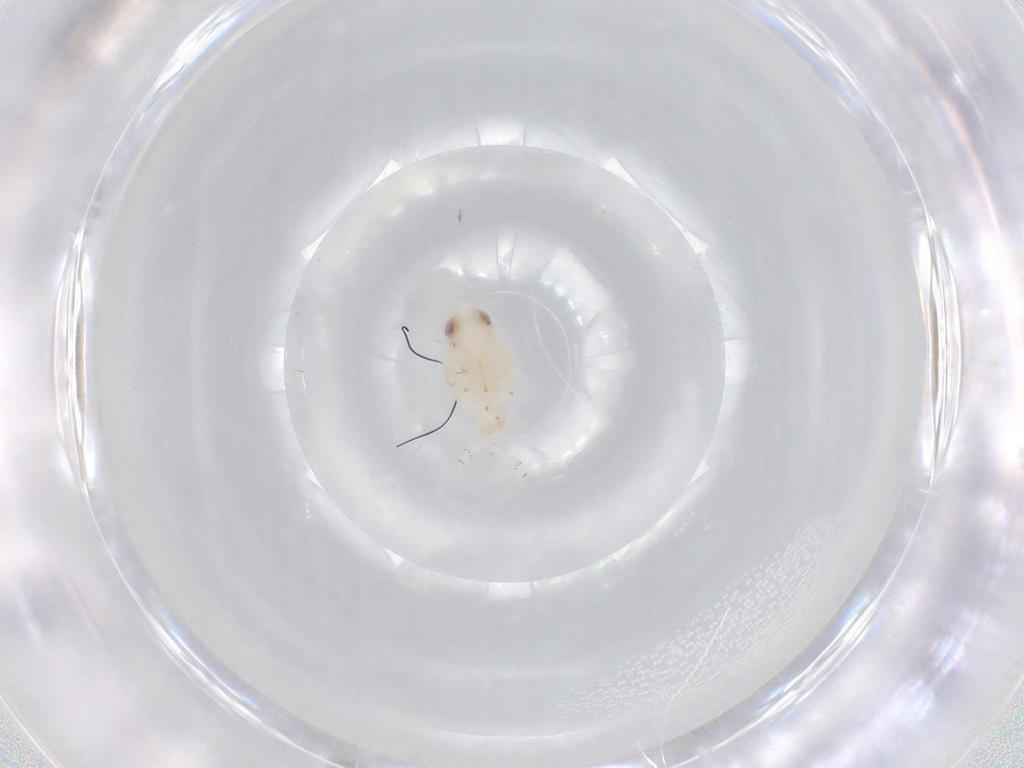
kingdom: Animalia
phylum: Arthropoda
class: Insecta
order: Hemiptera
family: Nogodinidae
